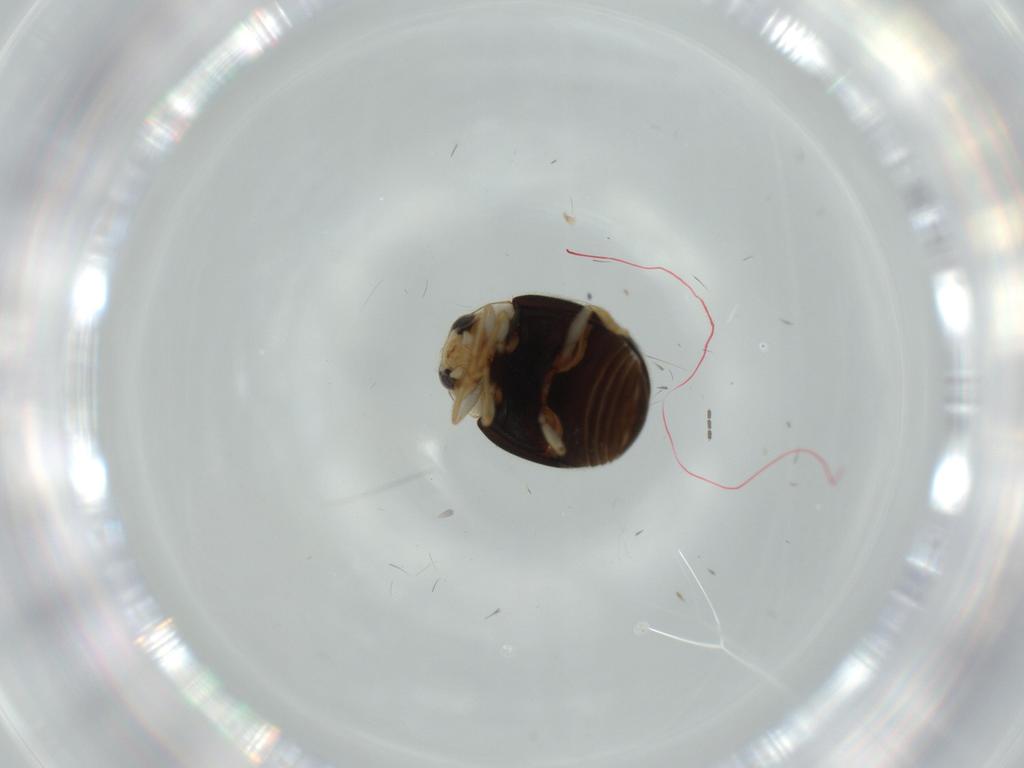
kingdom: Animalia
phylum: Arthropoda
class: Insecta
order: Coleoptera
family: Coccinellidae
